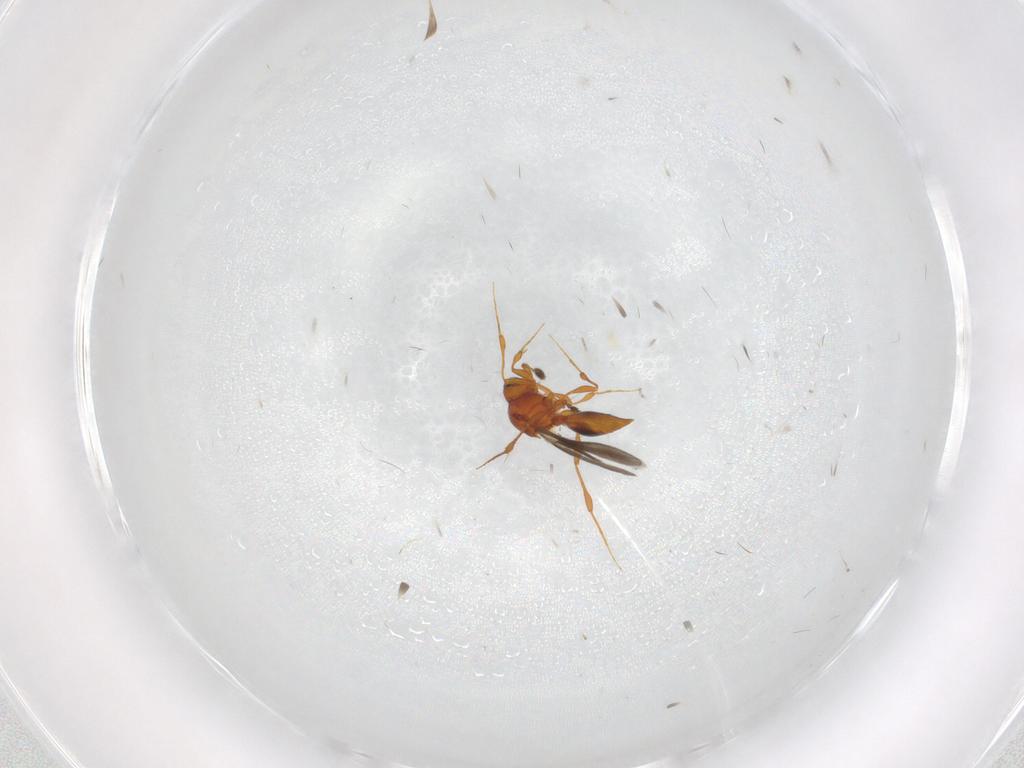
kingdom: Animalia
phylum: Arthropoda
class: Insecta
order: Hymenoptera
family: Platygastridae
